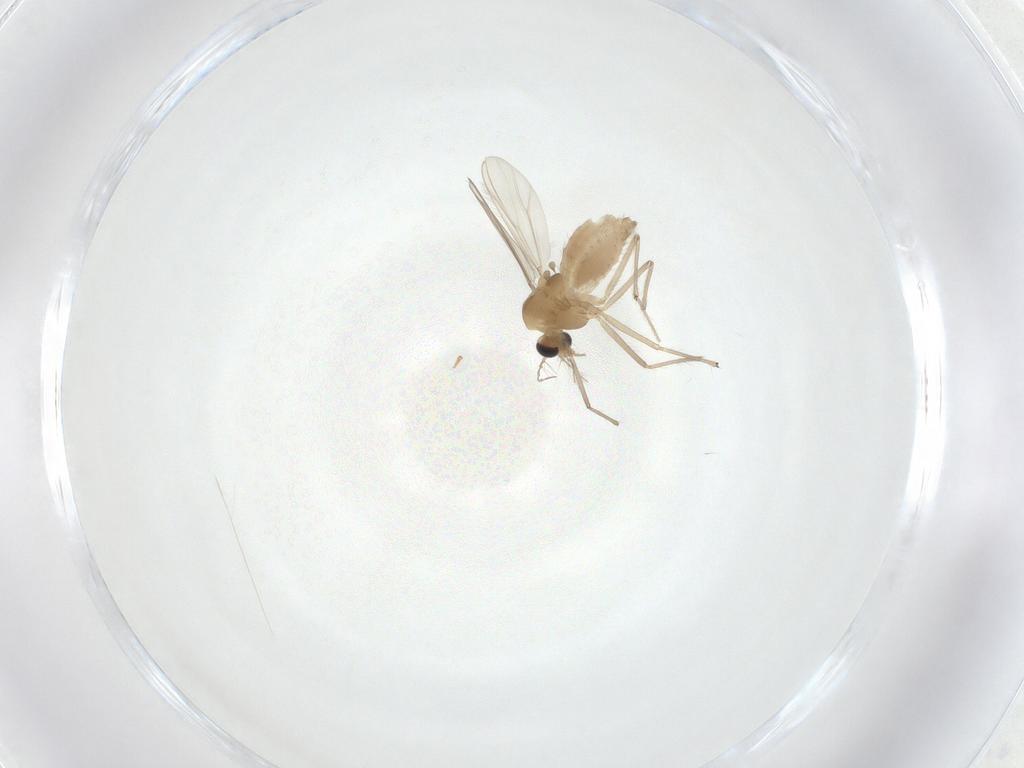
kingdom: Animalia
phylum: Arthropoda
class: Insecta
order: Diptera
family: Chironomidae
